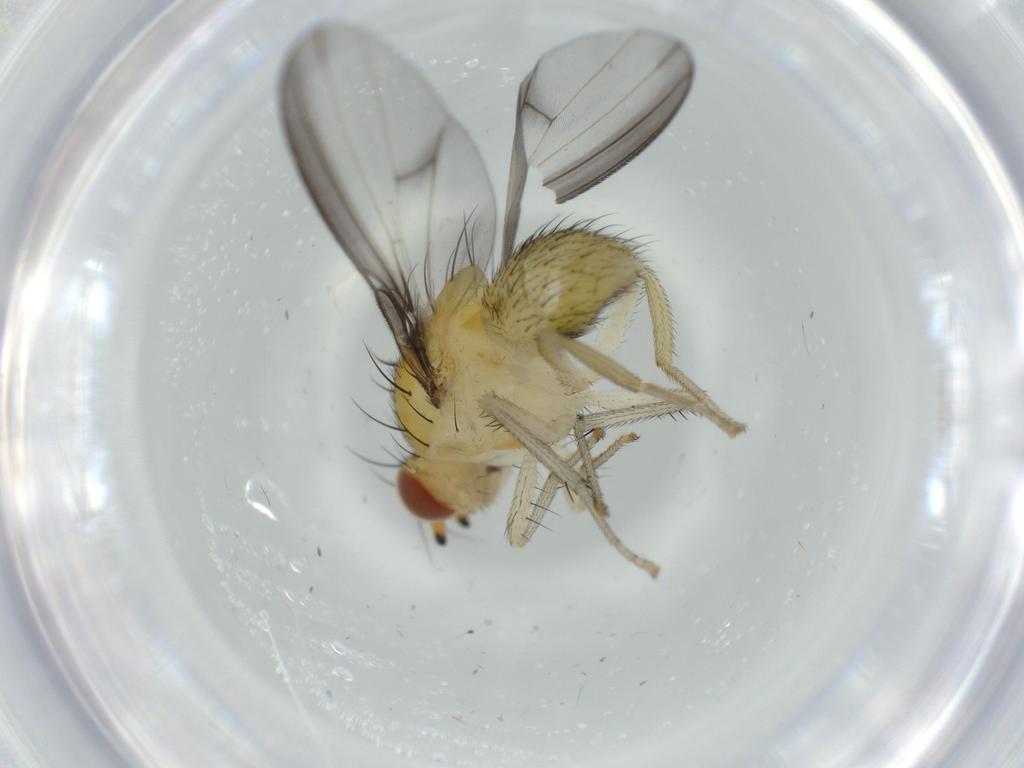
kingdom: Animalia
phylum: Arthropoda
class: Insecta
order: Diptera
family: Lauxaniidae
